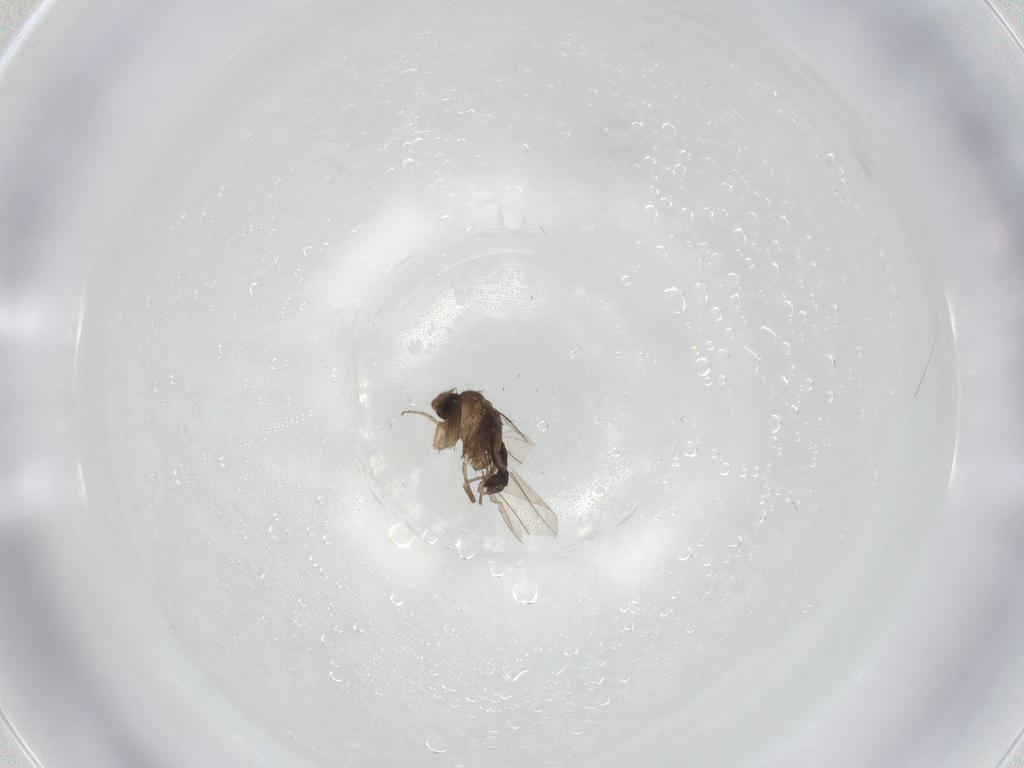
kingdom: Animalia
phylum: Arthropoda
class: Insecta
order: Diptera
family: Phoridae
